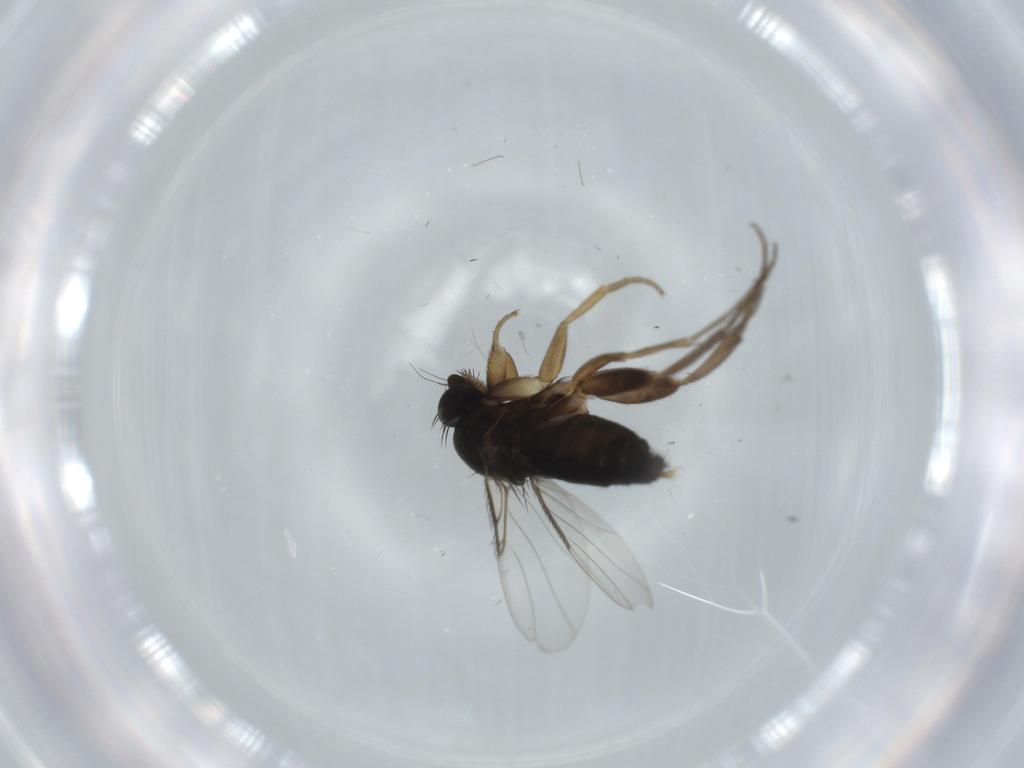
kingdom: Animalia
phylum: Arthropoda
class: Insecta
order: Diptera
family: Phoridae
